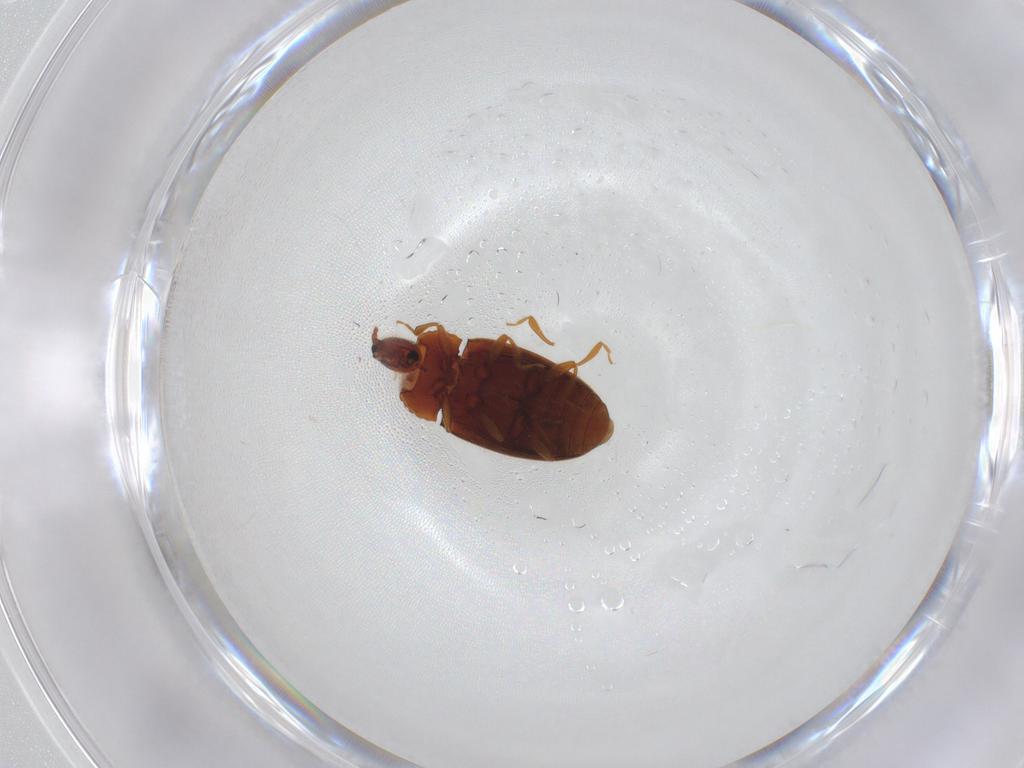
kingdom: Animalia
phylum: Arthropoda
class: Insecta
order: Coleoptera
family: Erotylidae
